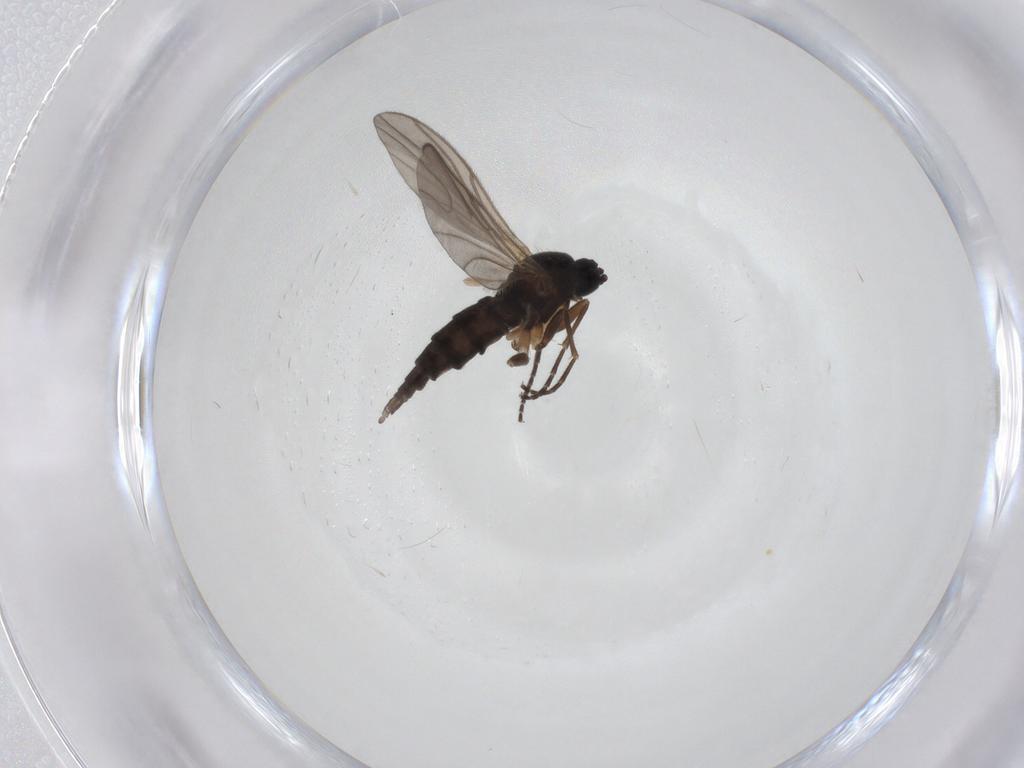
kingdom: Animalia
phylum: Arthropoda
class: Insecta
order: Diptera
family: Sciaridae
